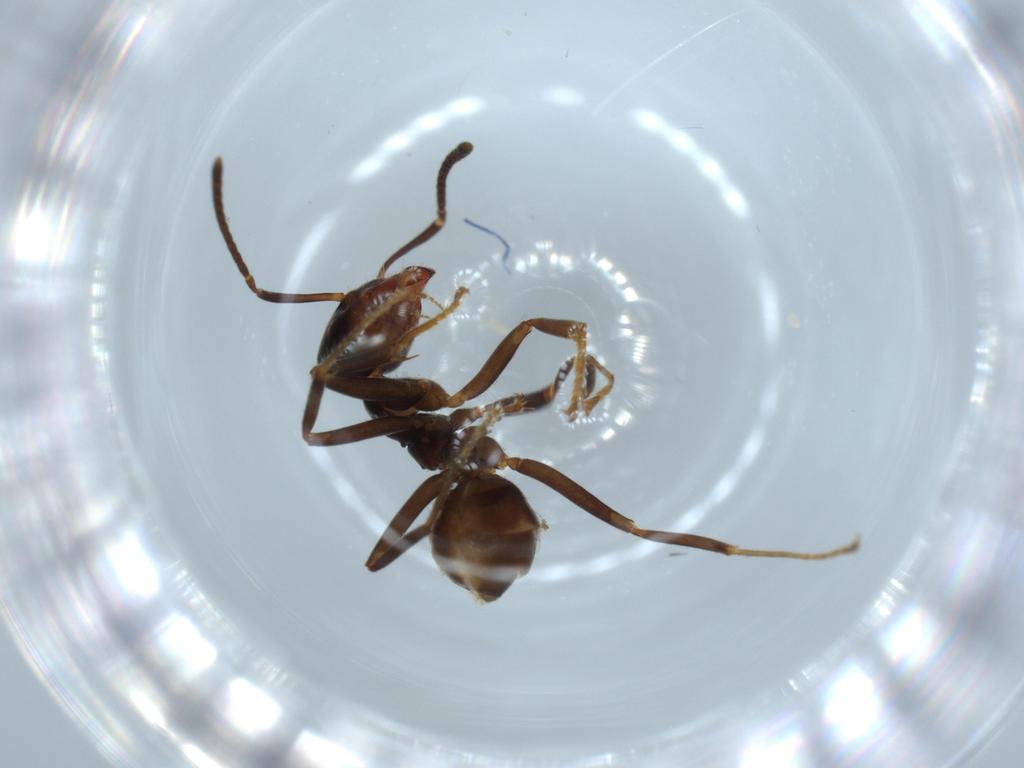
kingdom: Animalia
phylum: Arthropoda
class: Insecta
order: Hymenoptera
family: Formicidae
